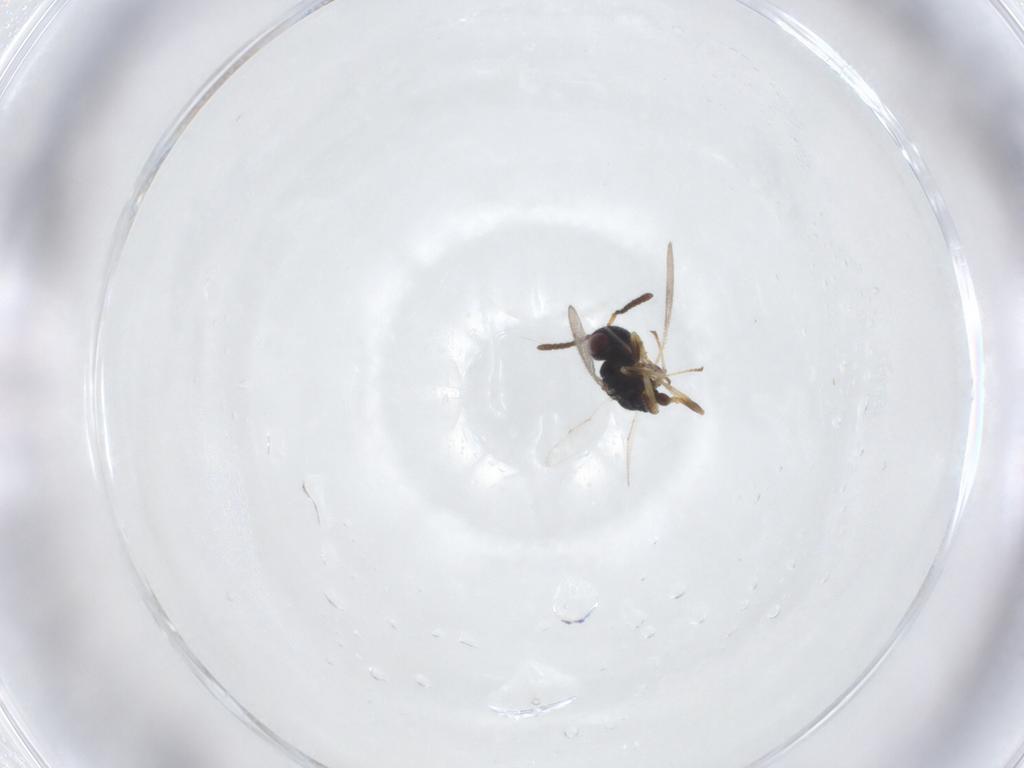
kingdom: Animalia
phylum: Arthropoda
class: Insecta
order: Hymenoptera
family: Pteromalidae
